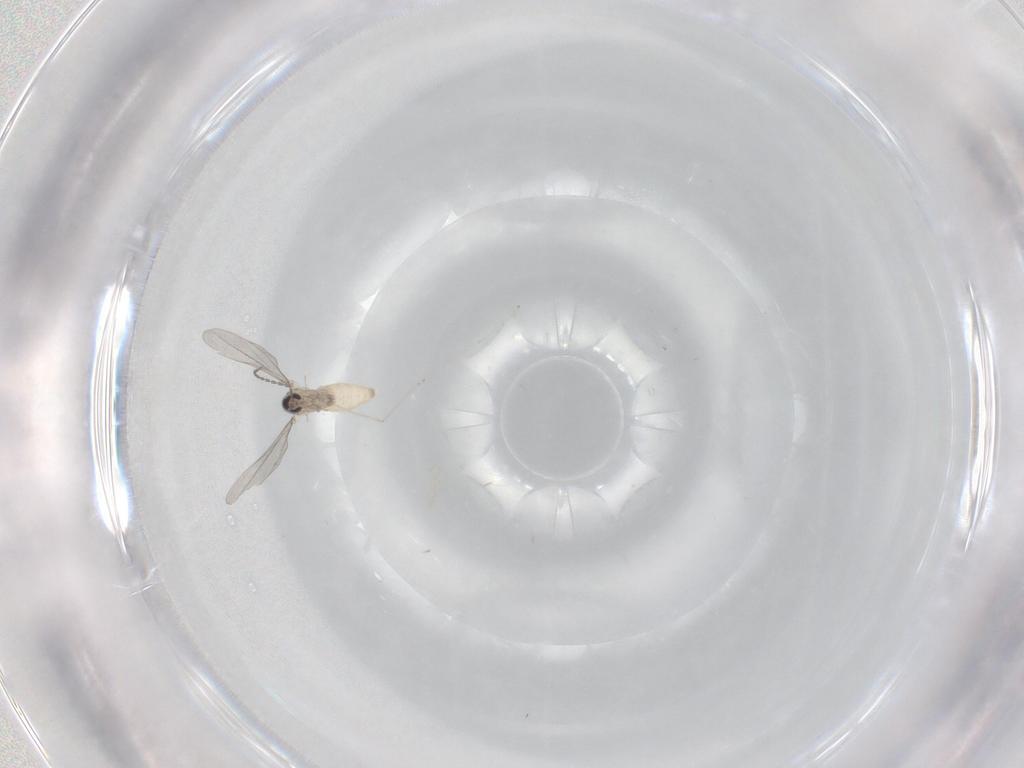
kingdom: Animalia
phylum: Arthropoda
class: Insecta
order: Diptera
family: Cecidomyiidae
